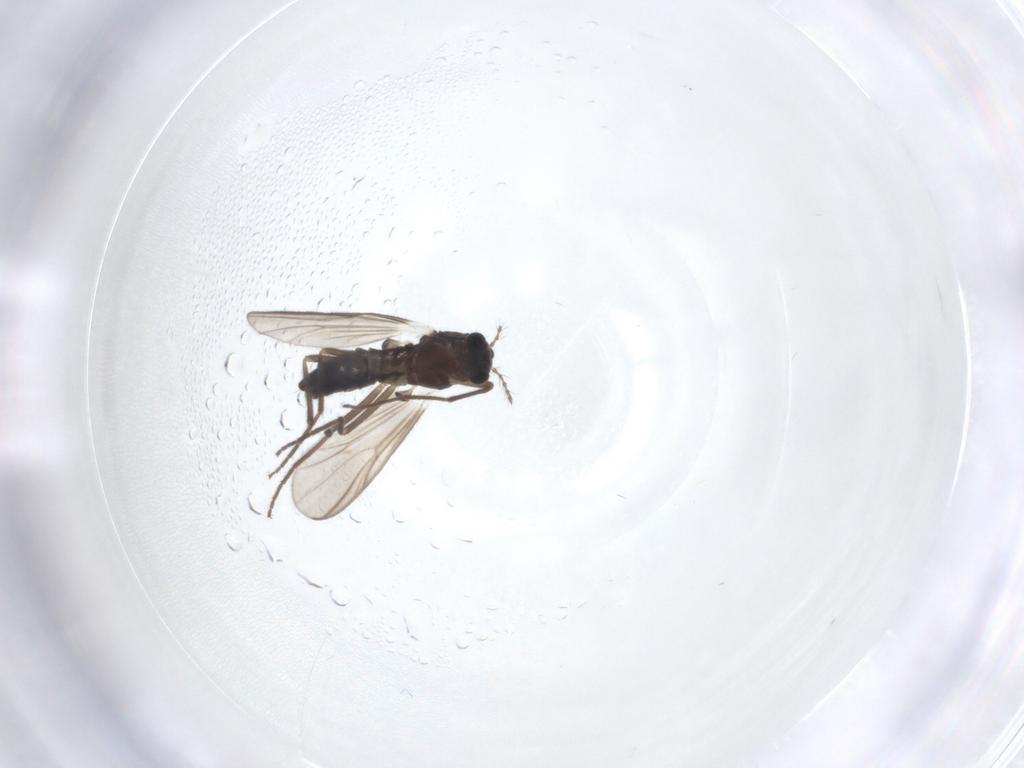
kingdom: Animalia
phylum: Arthropoda
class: Insecta
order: Diptera
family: Chironomidae
